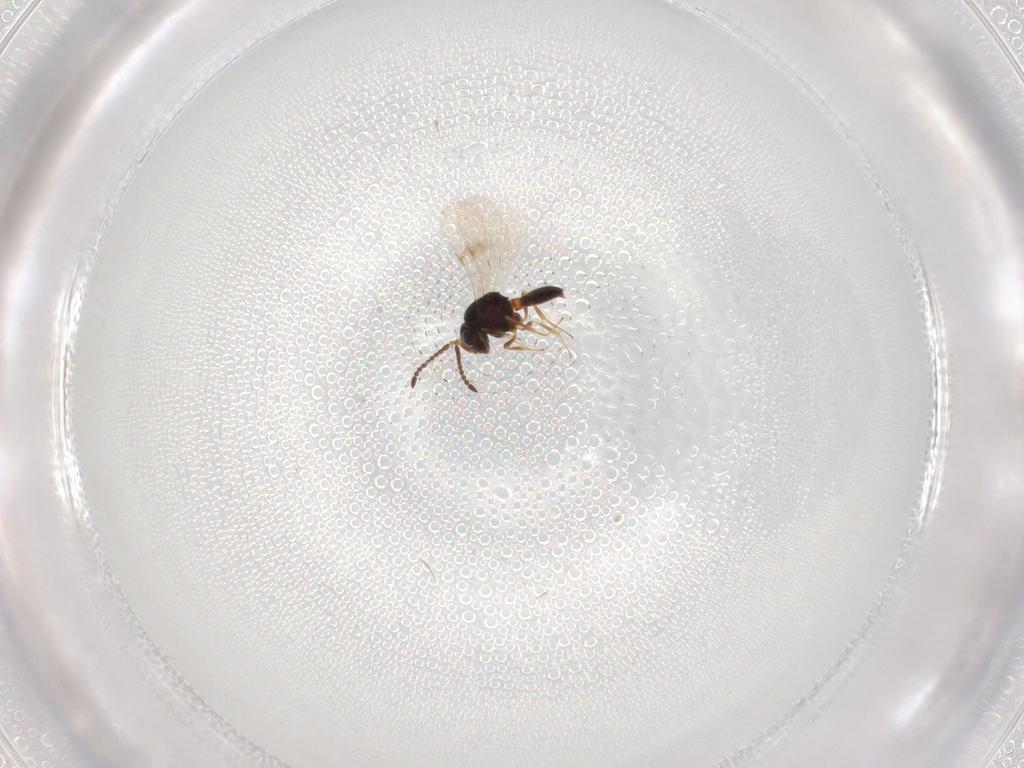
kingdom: Animalia
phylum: Arthropoda
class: Insecta
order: Hymenoptera
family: Scelionidae
